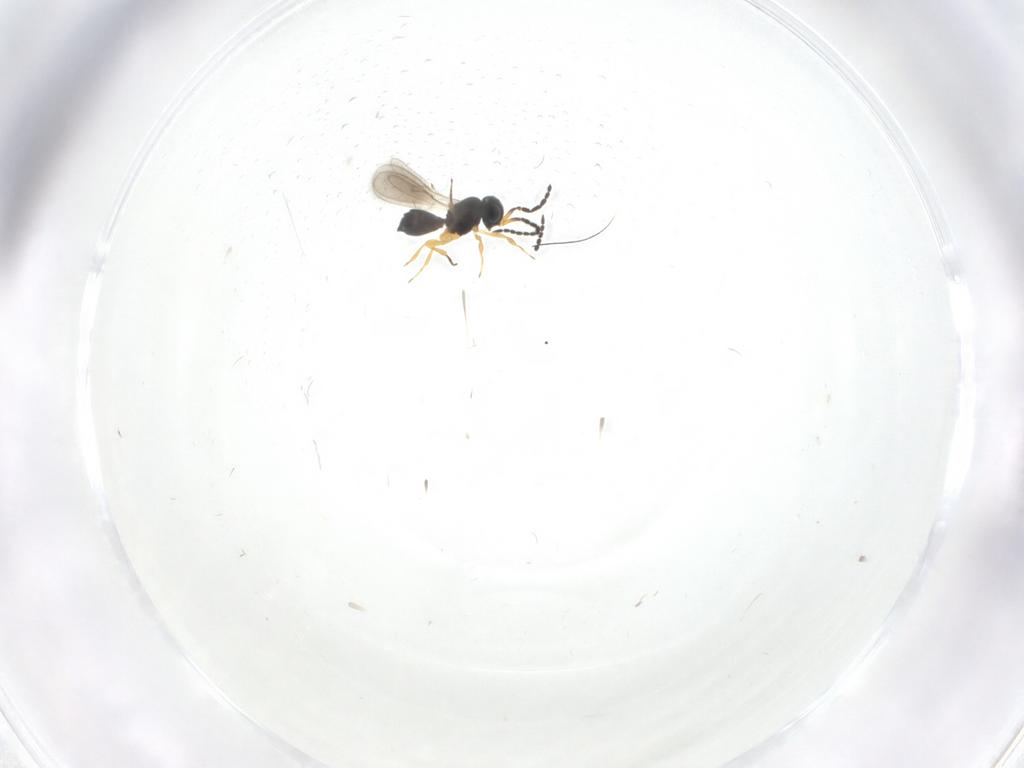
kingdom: Animalia
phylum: Arthropoda
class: Insecta
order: Hymenoptera
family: Scelionidae
